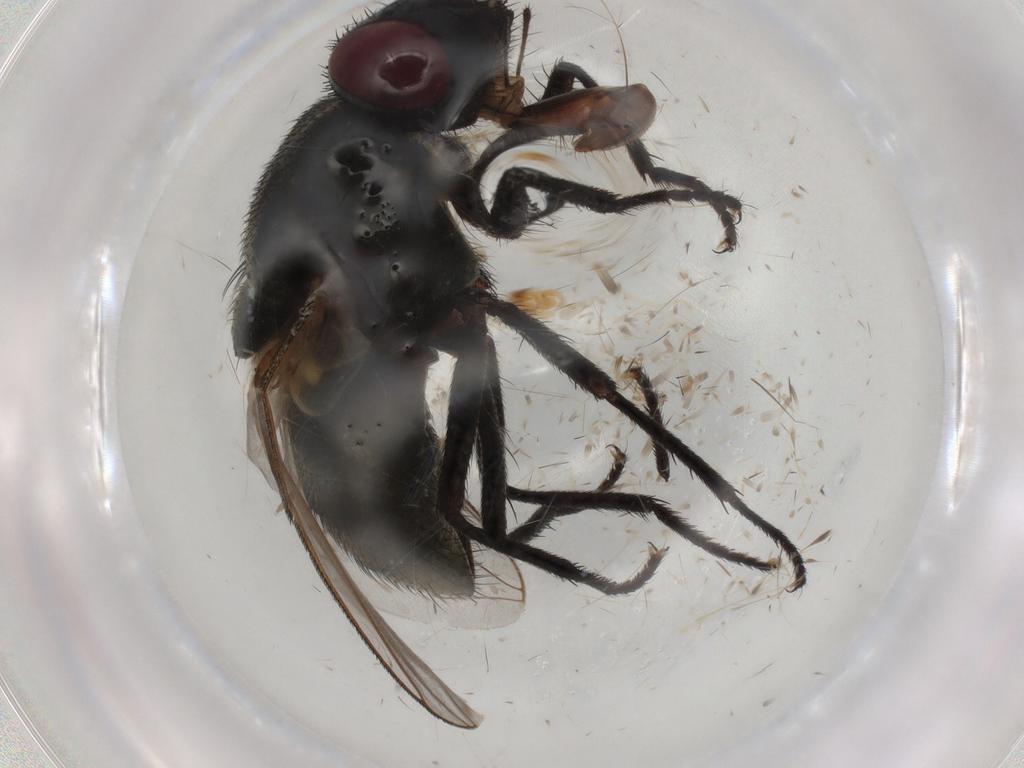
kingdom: Animalia
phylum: Arthropoda
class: Insecta
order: Diptera
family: Muscidae
